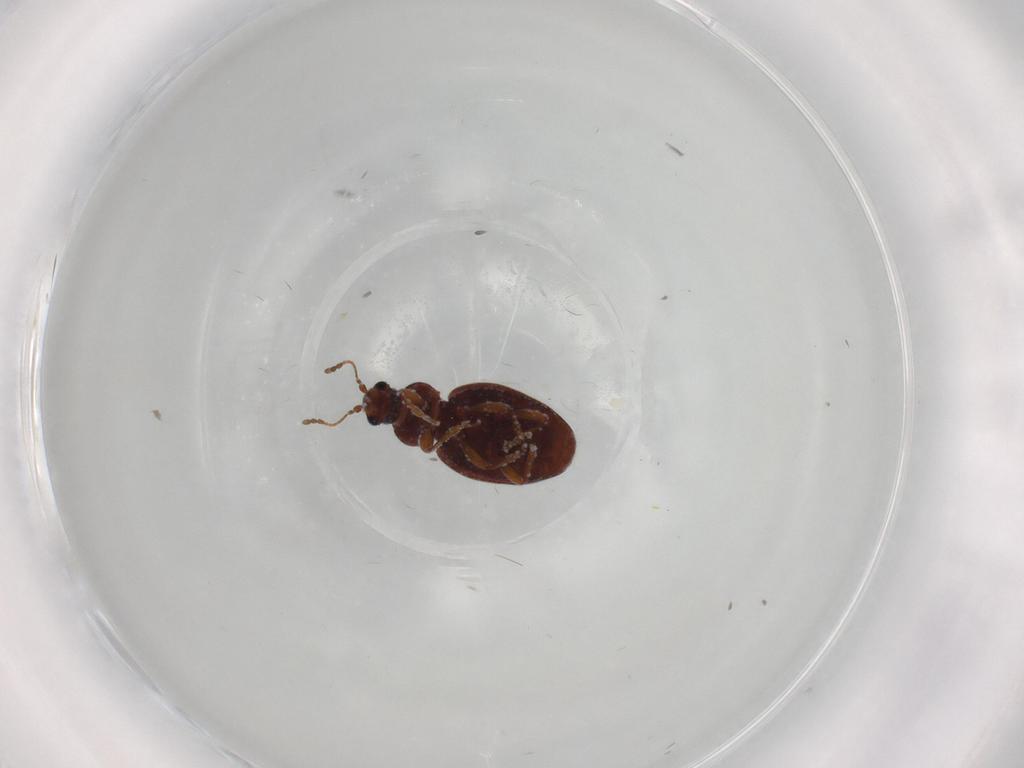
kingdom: Animalia
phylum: Arthropoda
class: Insecta
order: Coleoptera
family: Latridiidae
